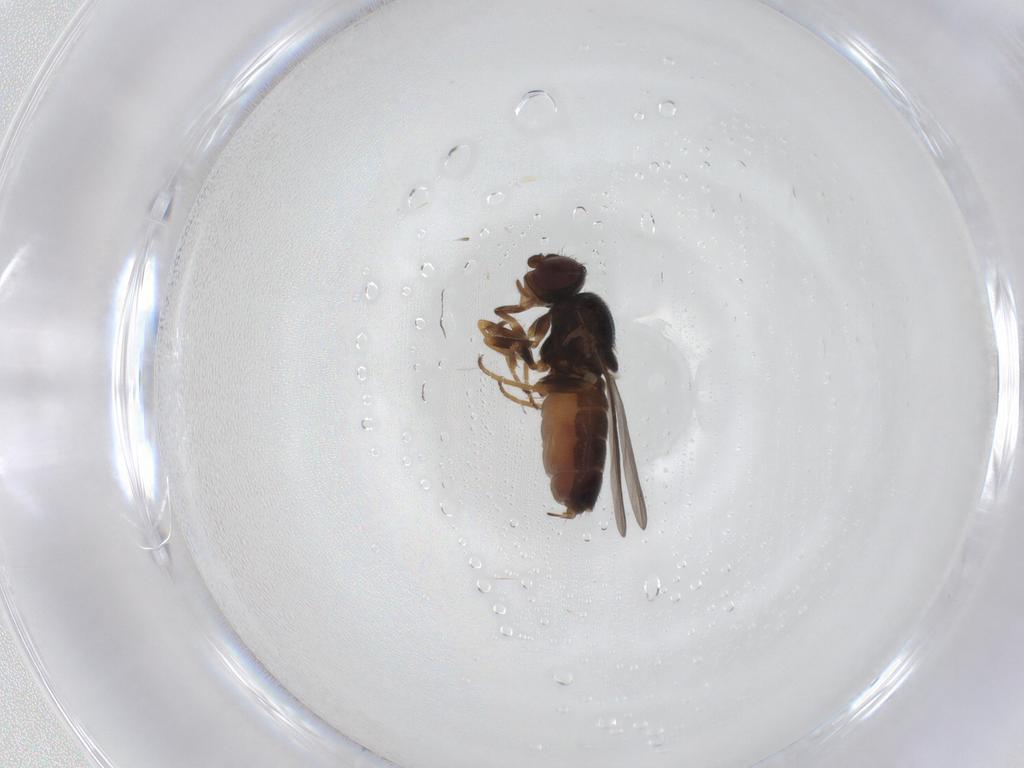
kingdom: Animalia
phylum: Arthropoda
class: Insecta
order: Diptera
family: Chloropidae
